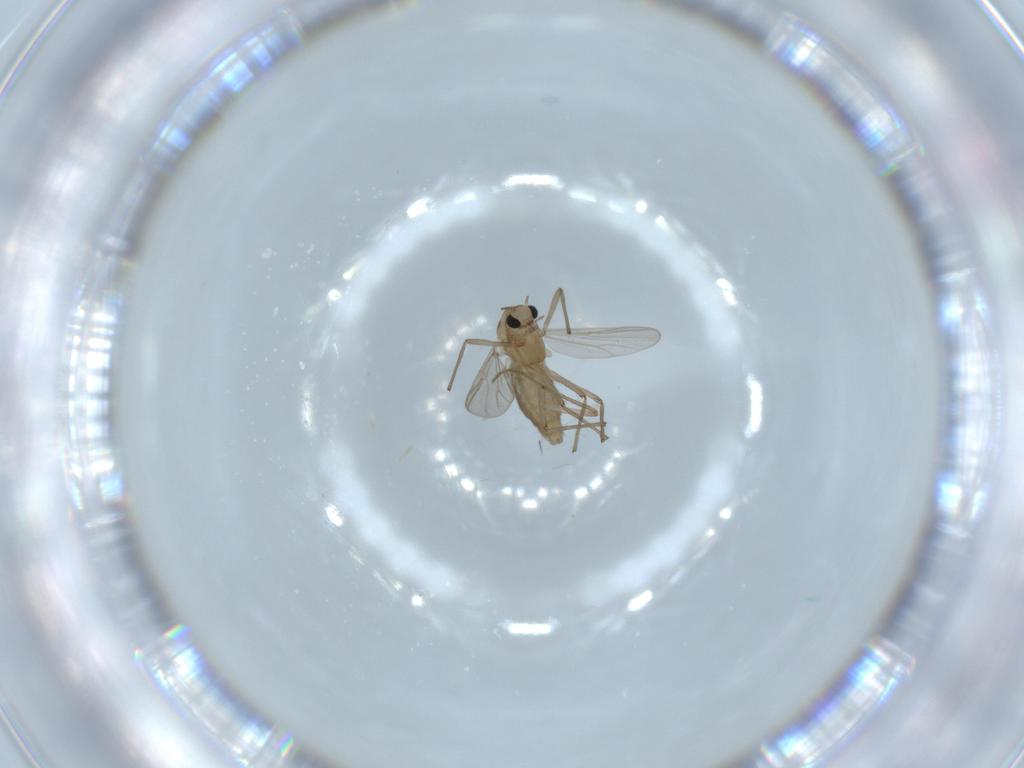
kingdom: Animalia
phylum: Arthropoda
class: Insecta
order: Diptera
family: Chironomidae
